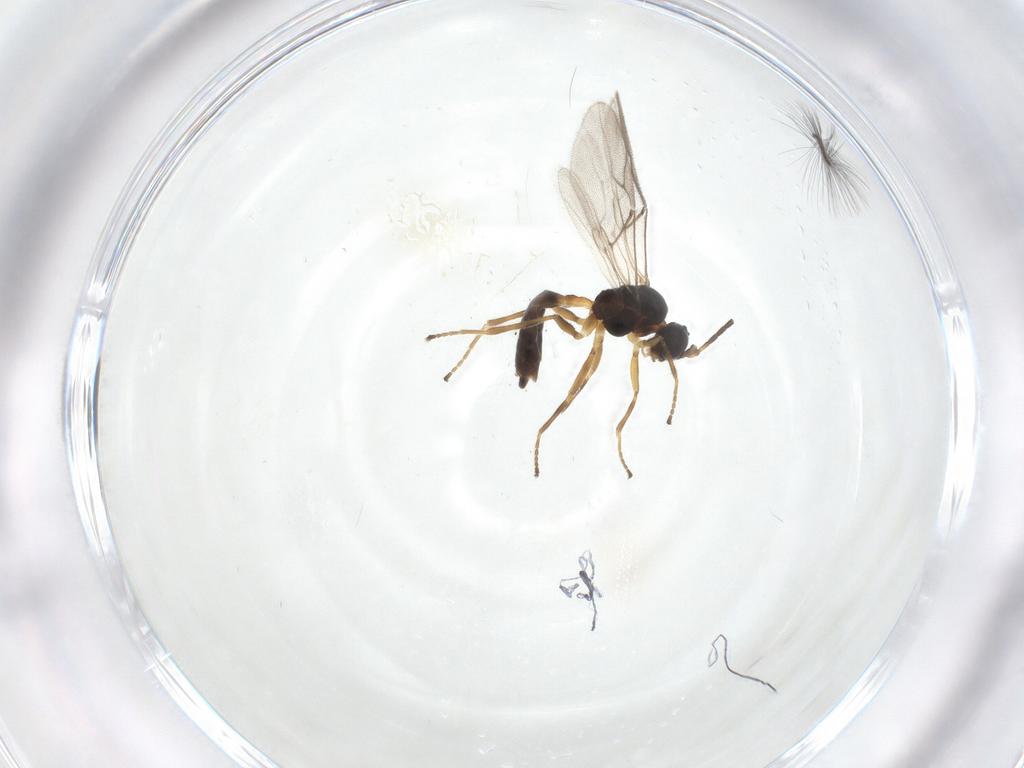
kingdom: Animalia
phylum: Arthropoda
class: Insecta
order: Hymenoptera
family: Braconidae
